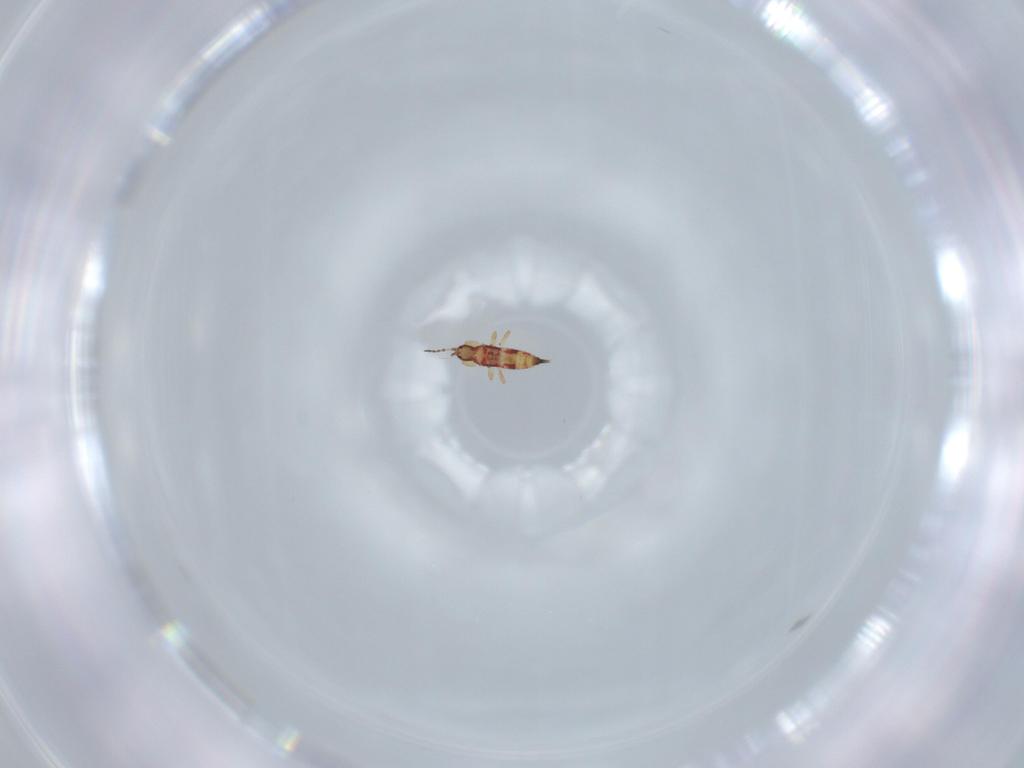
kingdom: Animalia
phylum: Arthropoda
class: Insecta
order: Thysanoptera
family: Phlaeothripidae
